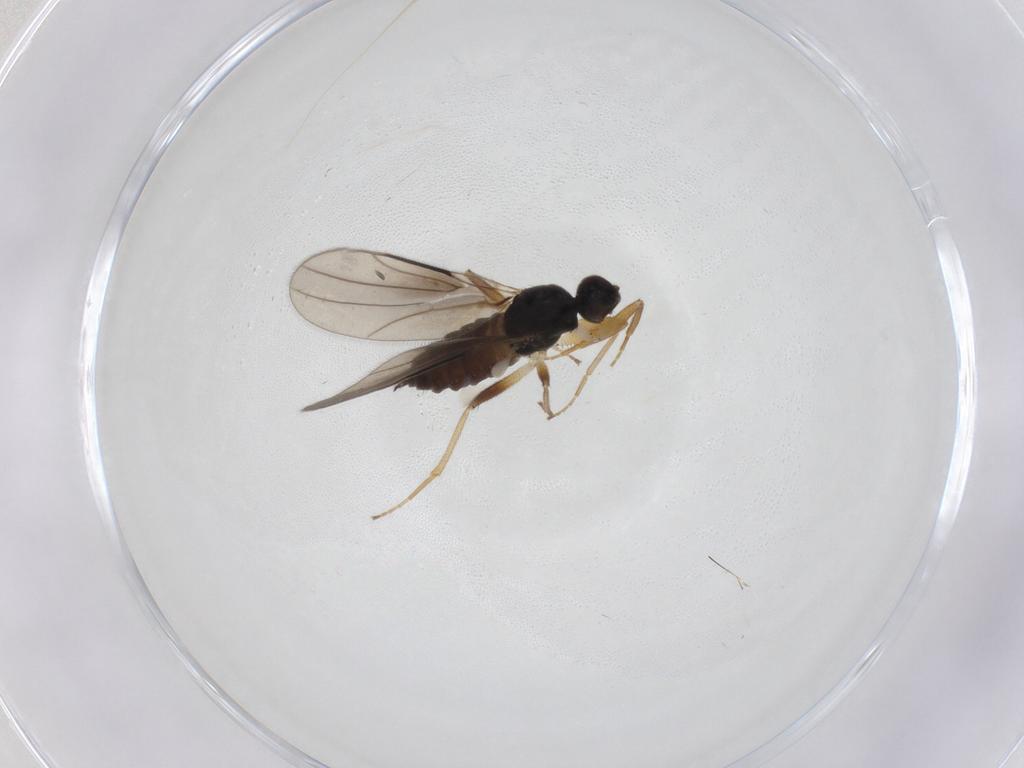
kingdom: Animalia
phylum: Arthropoda
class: Insecta
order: Diptera
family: Hybotidae
